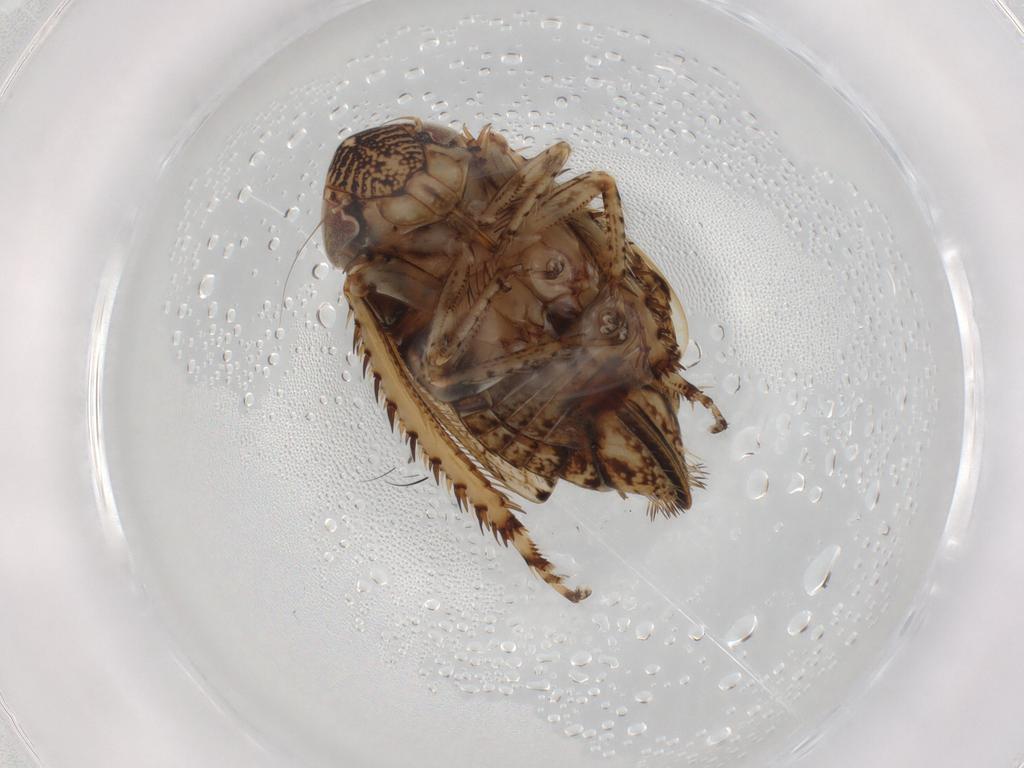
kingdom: Animalia
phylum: Arthropoda
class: Insecta
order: Hemiptera
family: Cicadellidae
